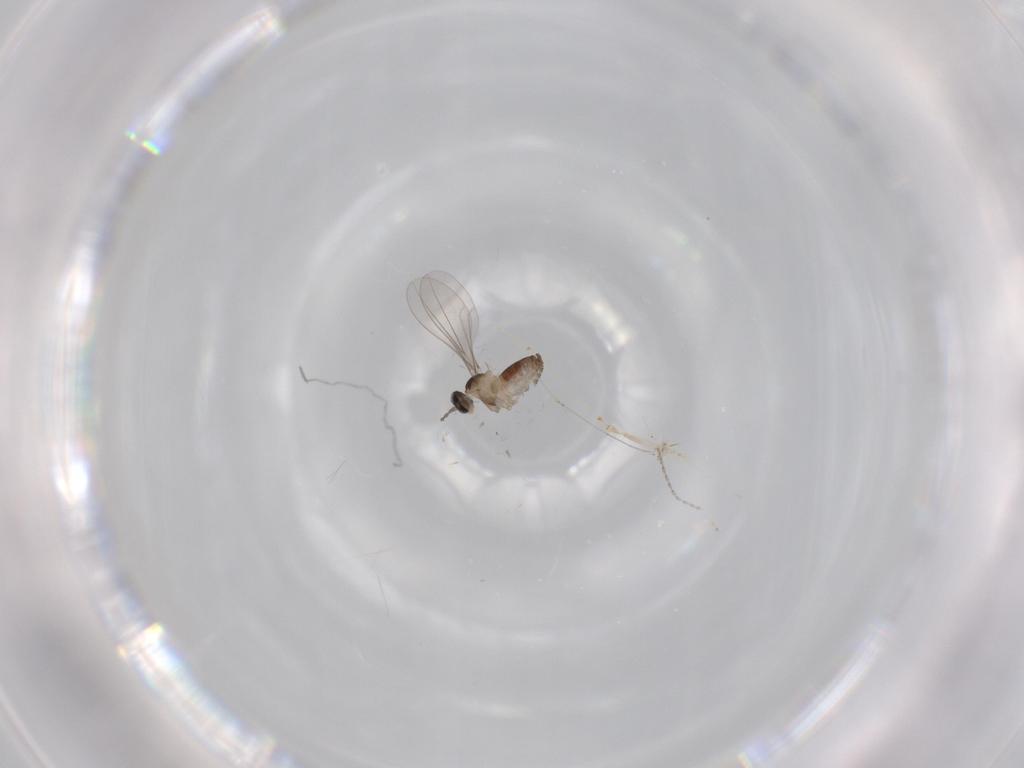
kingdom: Animalia
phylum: Arthropoda
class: Insecta
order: Diptera
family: Cecidomyiidae
